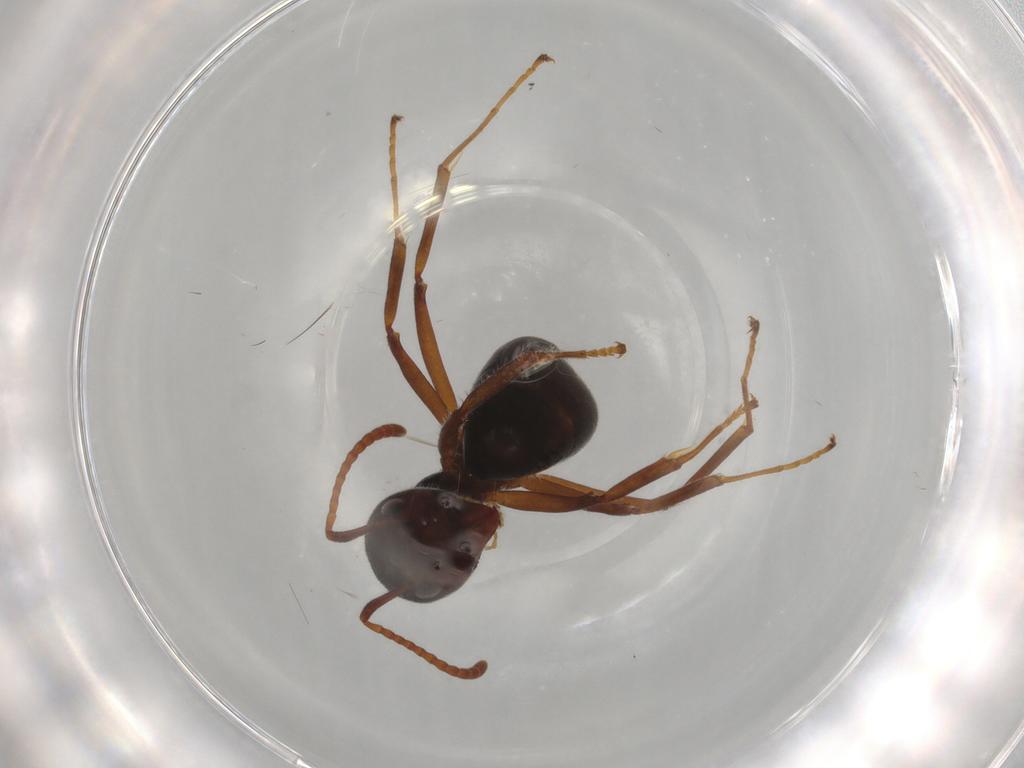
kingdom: Animalia
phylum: Arthropoda
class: Insecta
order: Hymenoptera
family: Formicidae
